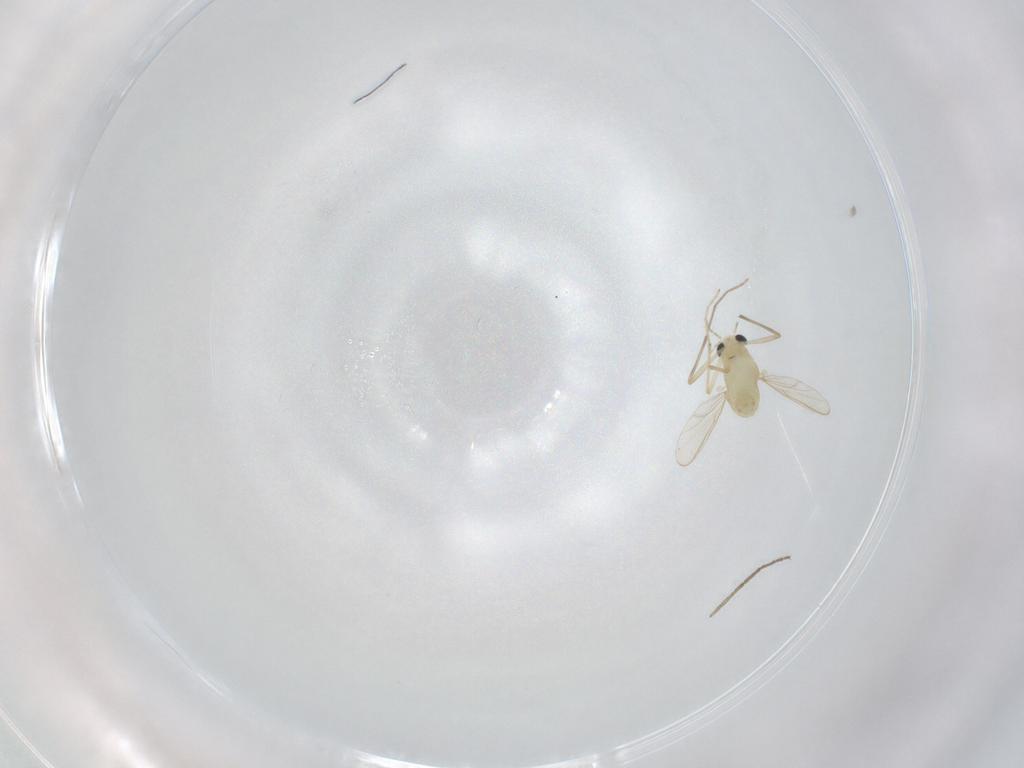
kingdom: Animalia
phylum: Arthropoda
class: Insecta
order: Diptera
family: Chironomidae
